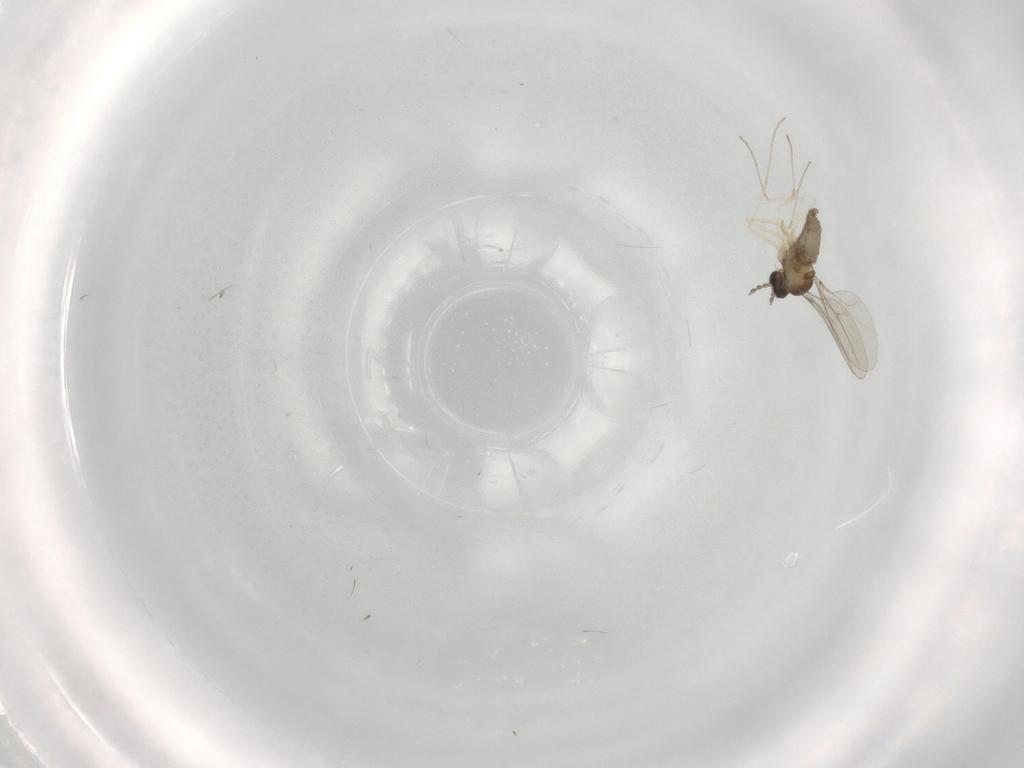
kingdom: Animalia
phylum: Arthropoda
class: Insecta
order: Diptera
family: Cecidomyiidae
